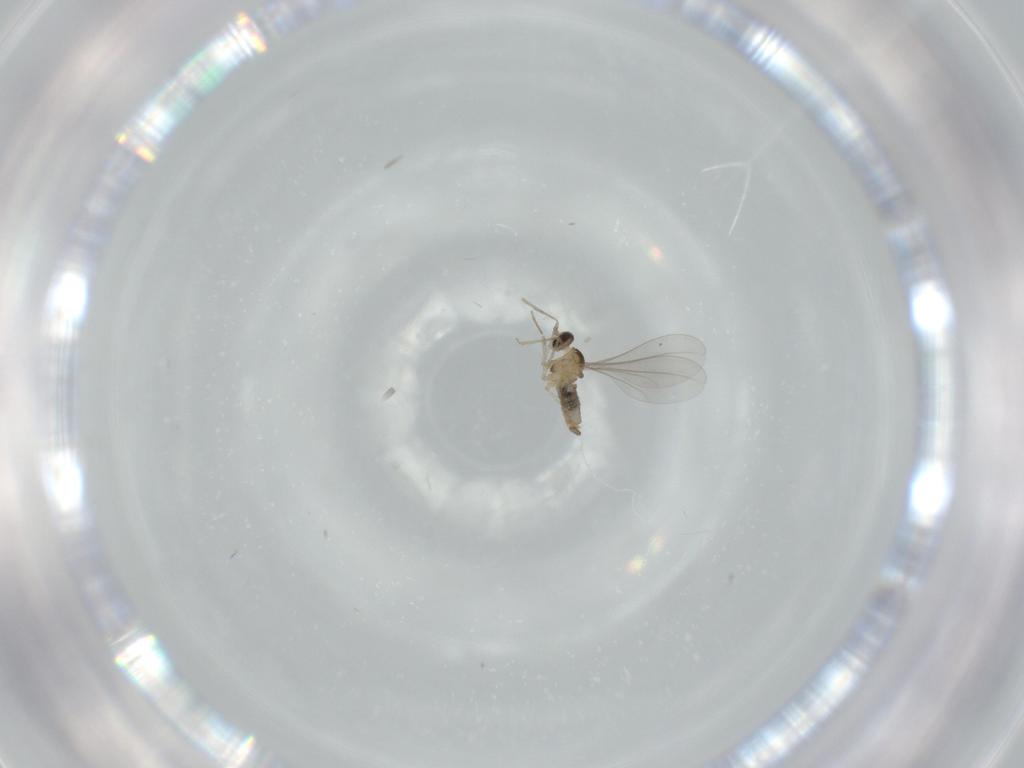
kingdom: Animalia
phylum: Arthropoda
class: Insecta
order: Diptera
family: Cecidomyiidae
